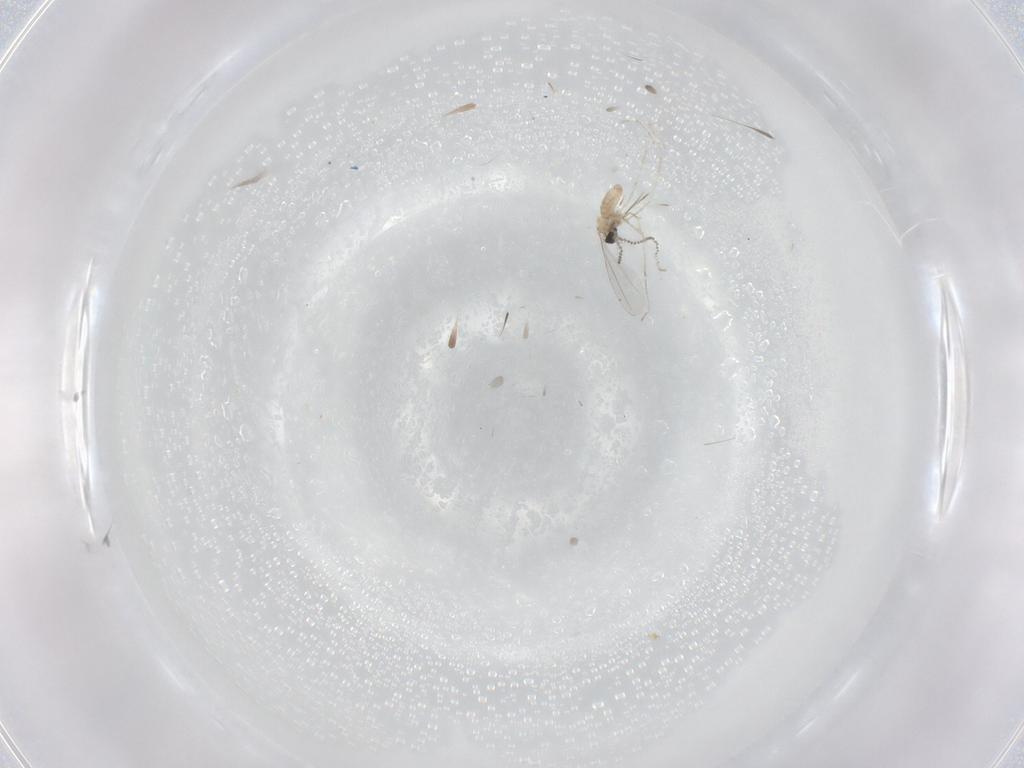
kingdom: Animalia
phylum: Arthropoda
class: Insecta
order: Diptera
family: Cecidomyiidae
